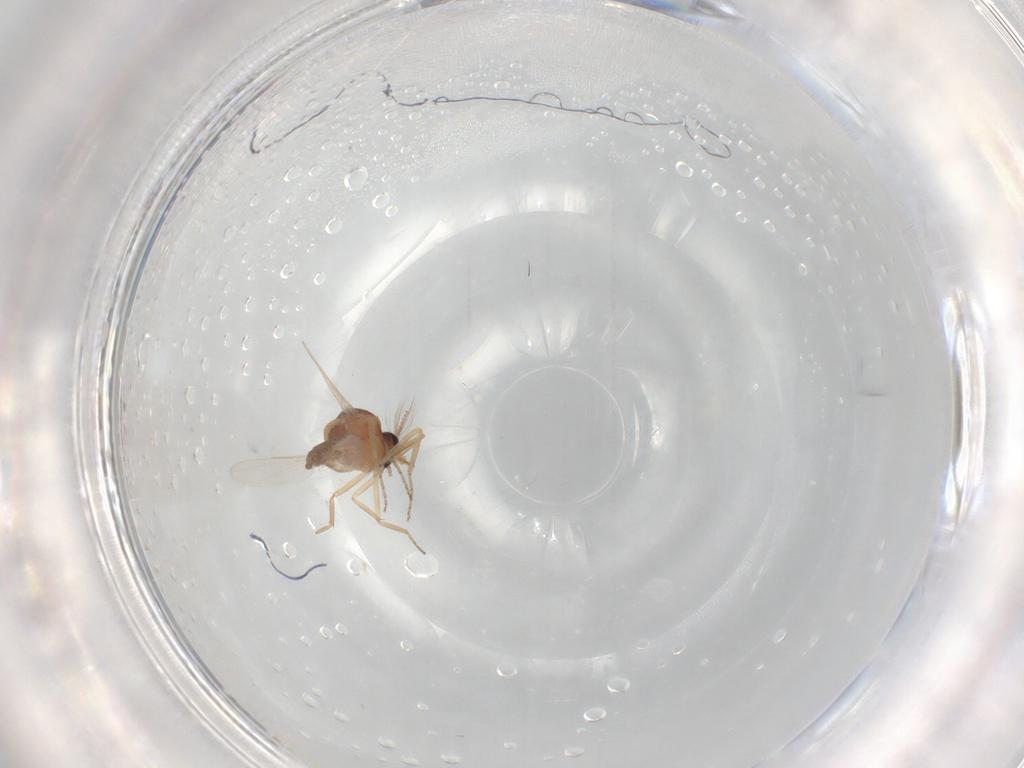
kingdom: Animalia
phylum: Arthropoda
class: Insecta
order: Diptera
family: Ceratopogonidae
